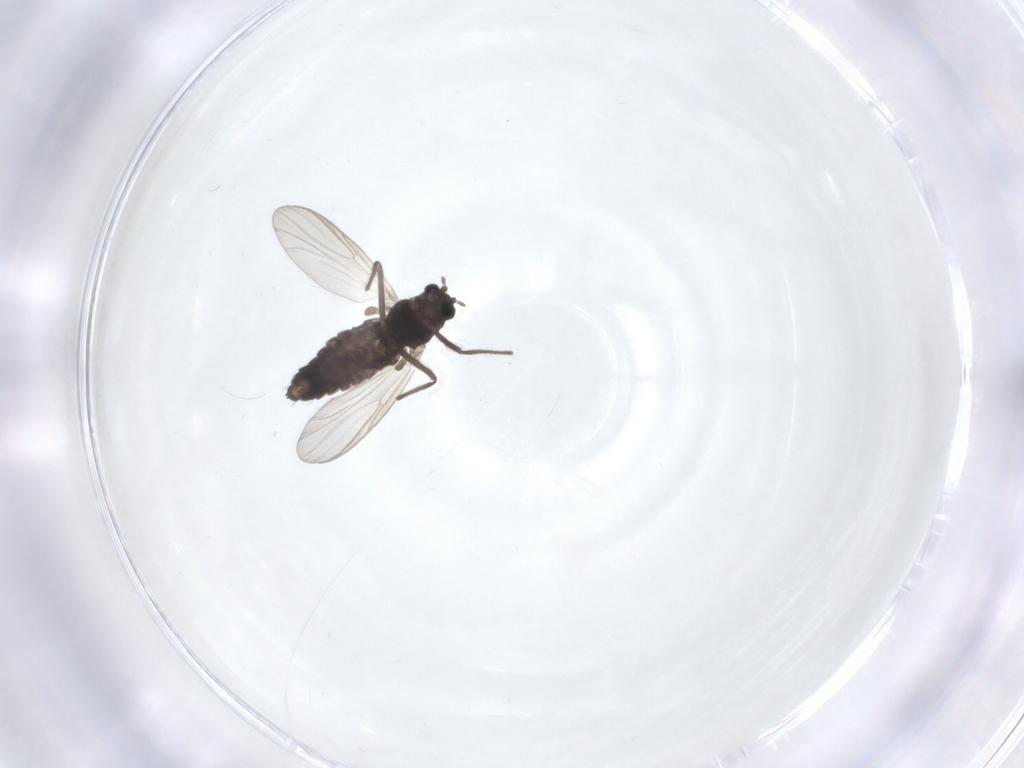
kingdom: Animalia
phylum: Arthropoda
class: Insecta
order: Diptera
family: Chironomidae
